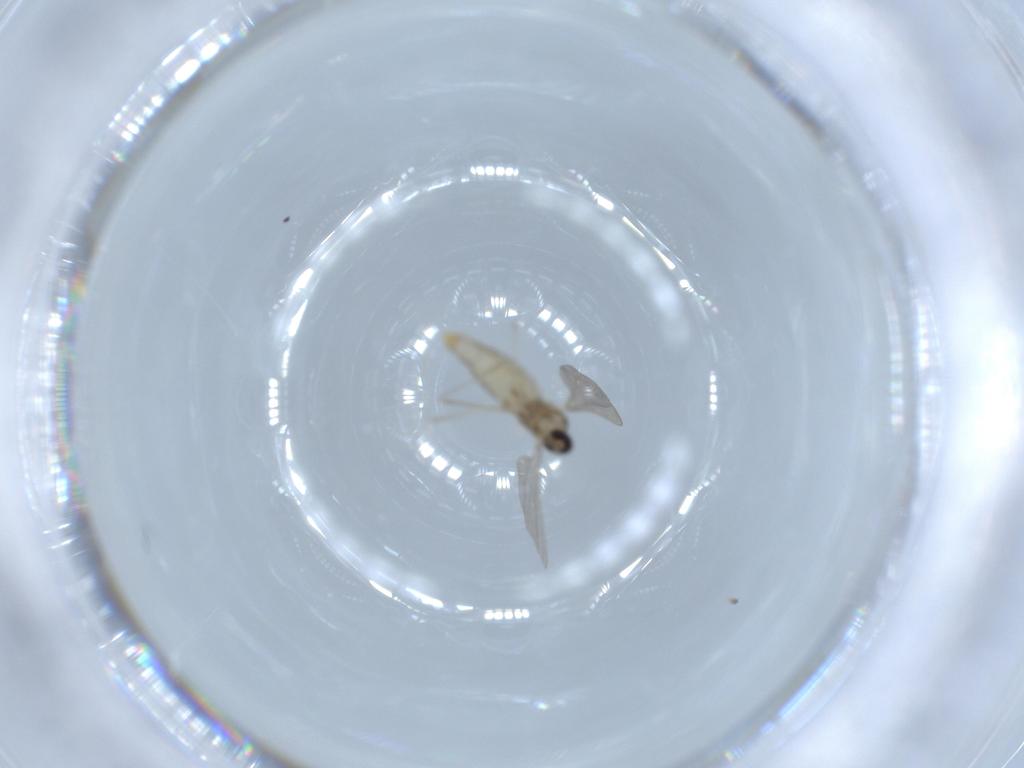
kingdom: Animalia
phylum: Arthropoda
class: Insecta
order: Diptera
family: Cecidomyiidae
